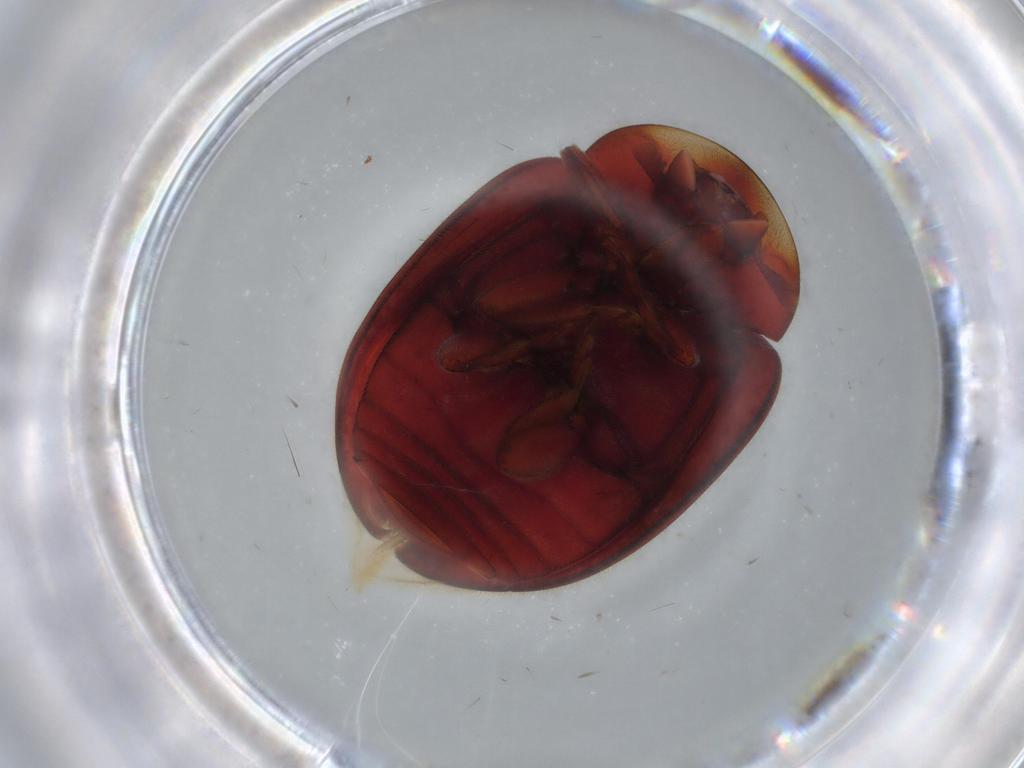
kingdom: Animalia
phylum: Arthropoda
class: Insecta
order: Coleoptera
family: Coccinellidae
